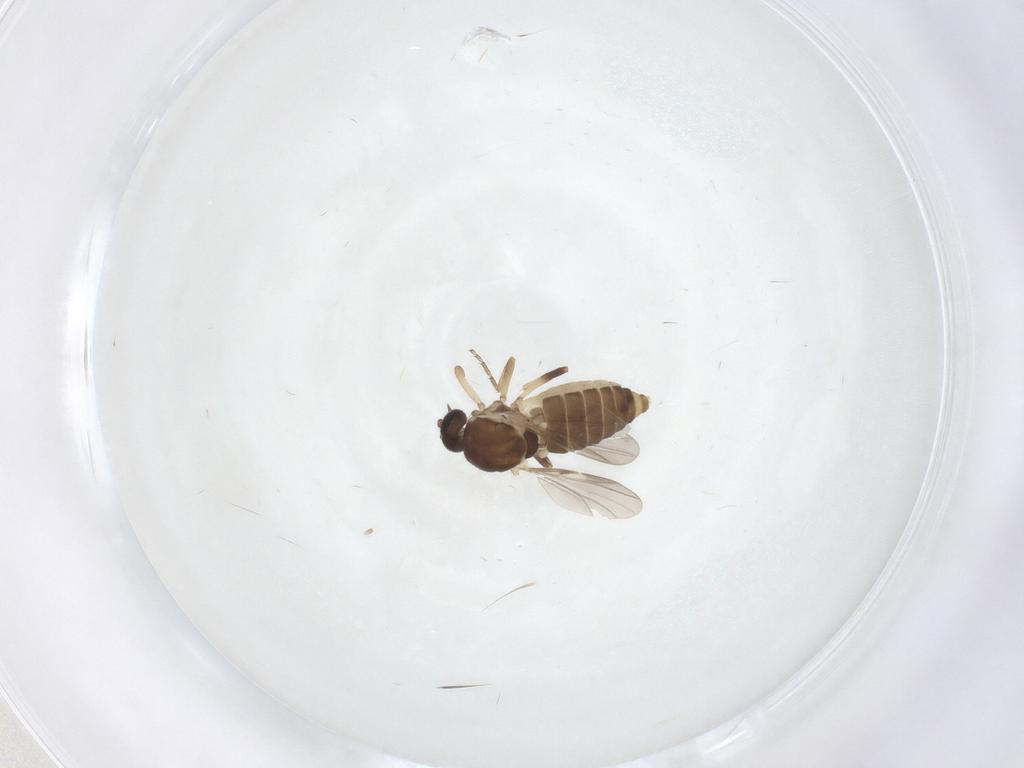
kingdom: Animalia
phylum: Arthropoda
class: Insecta
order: Diptera
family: Ceratopogonidae
